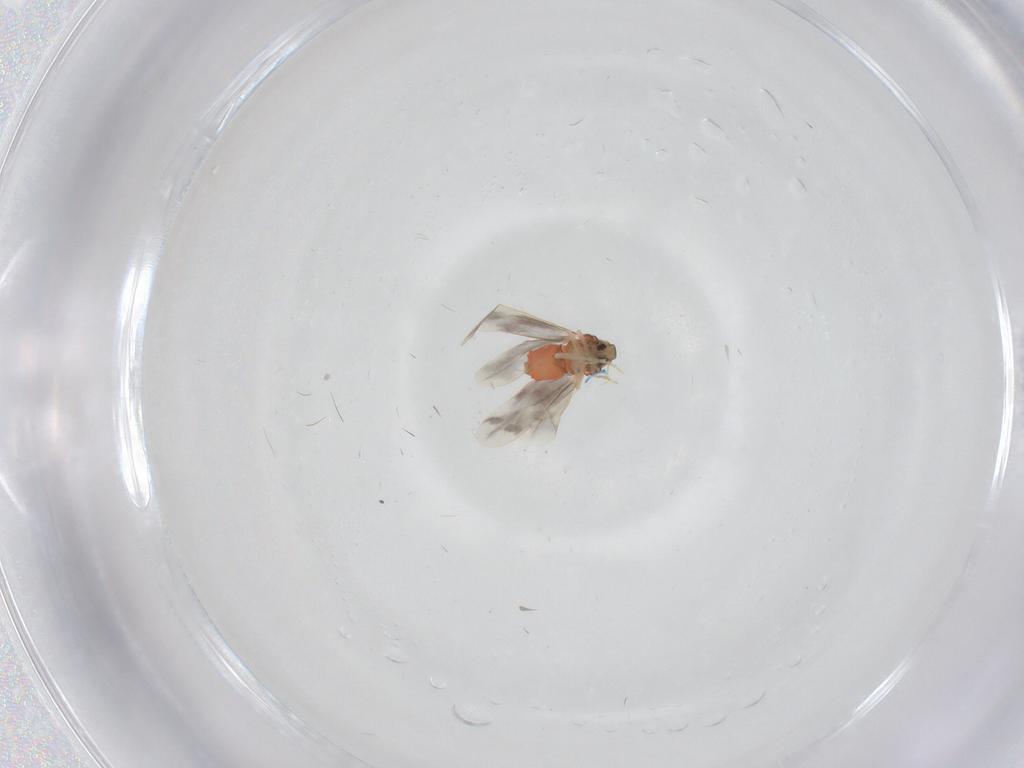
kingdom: Animalia
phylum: Arthropoda
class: Insecta
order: Hemiptera
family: Aleyrodidae
